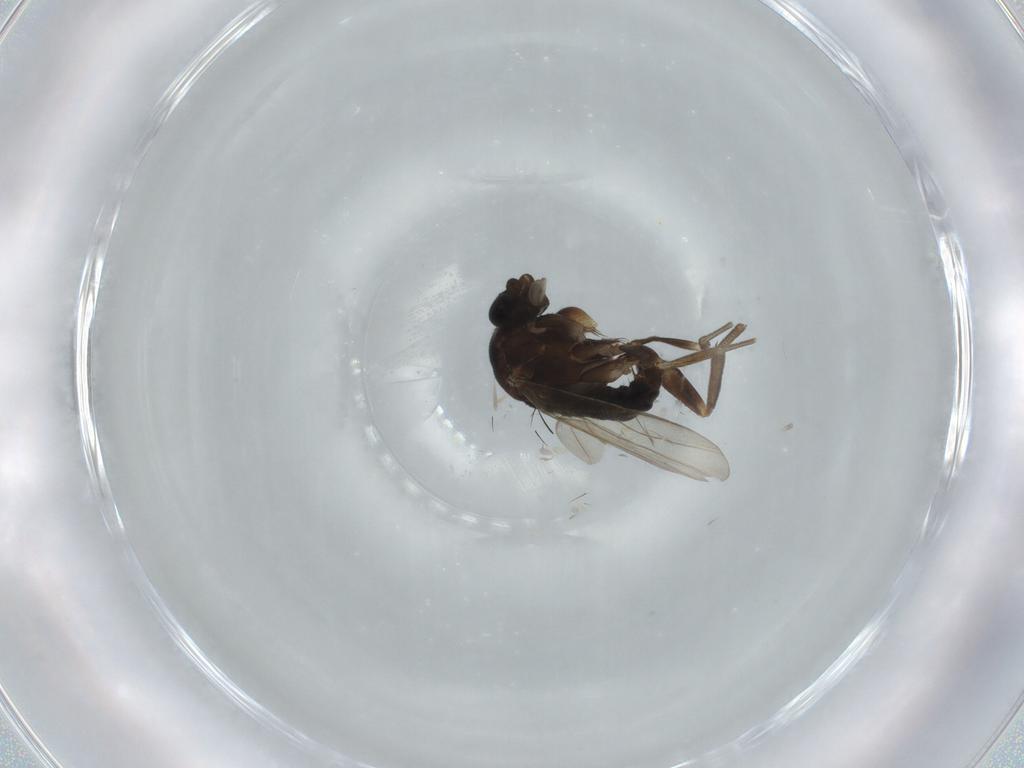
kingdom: Animalia
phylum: Arthropoda
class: Insecta
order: Diptera
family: Phoridae
